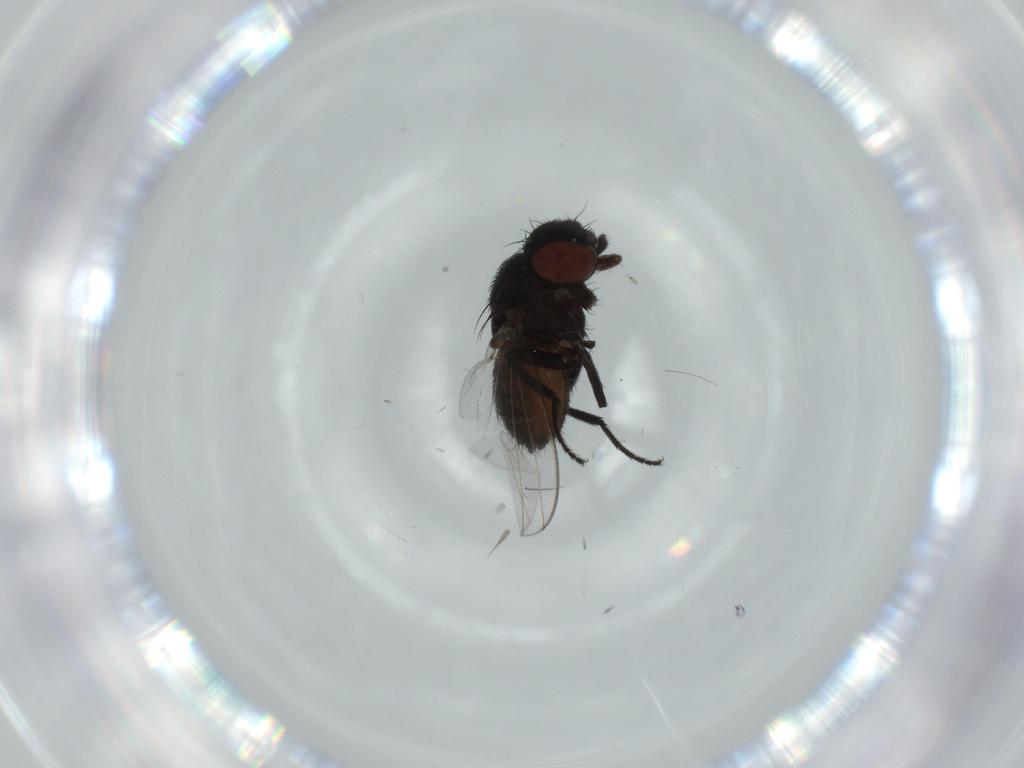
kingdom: Animalia
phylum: Arthropoda
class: Insecta
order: Diptera
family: Milichiidae
